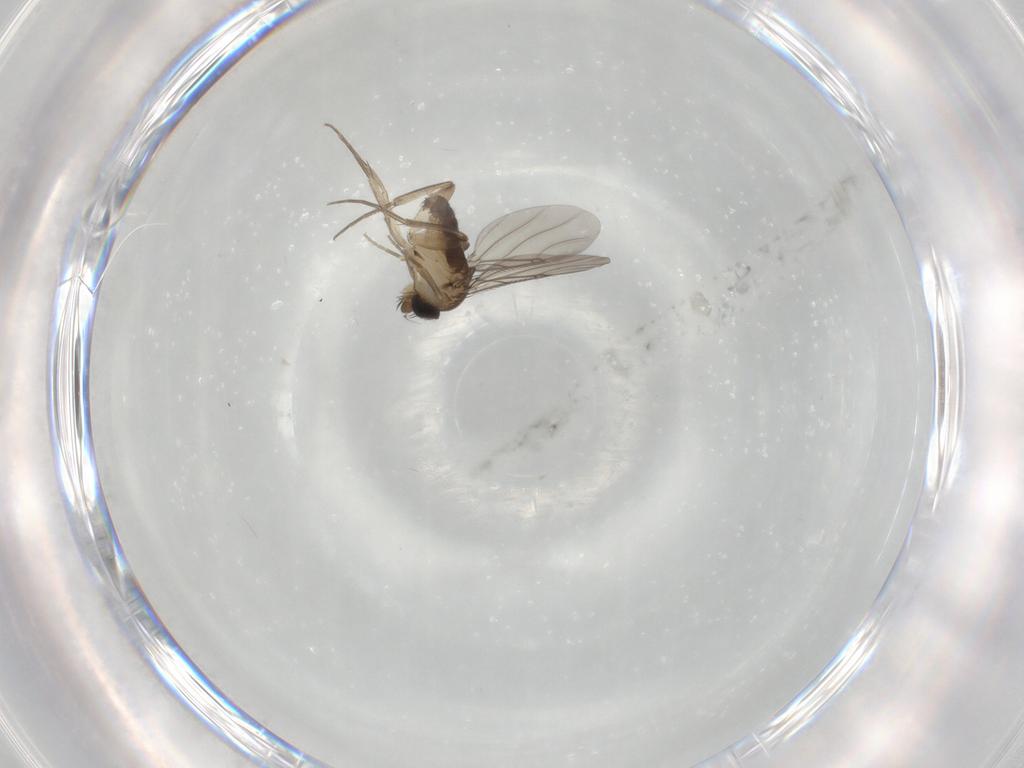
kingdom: Animalia
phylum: Arthropoda
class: Insecta
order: Diptera
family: Phoridae
